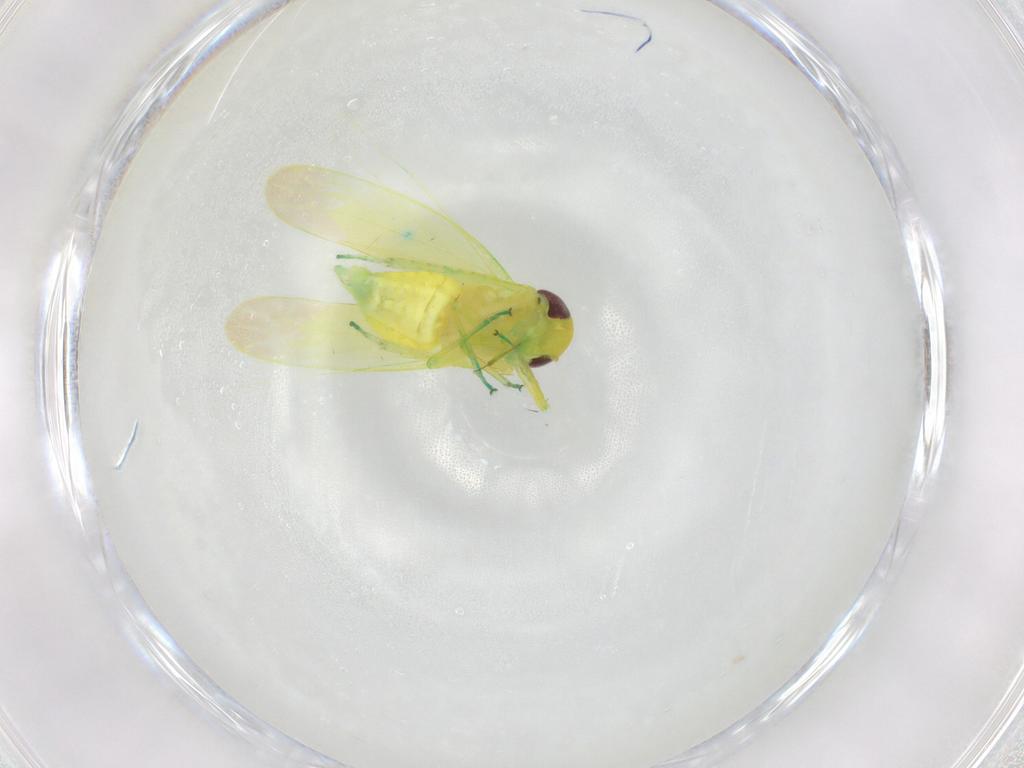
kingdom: Animalia
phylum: Arthropoda
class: Insecta
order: Hemiptera
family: Cicadellidae
